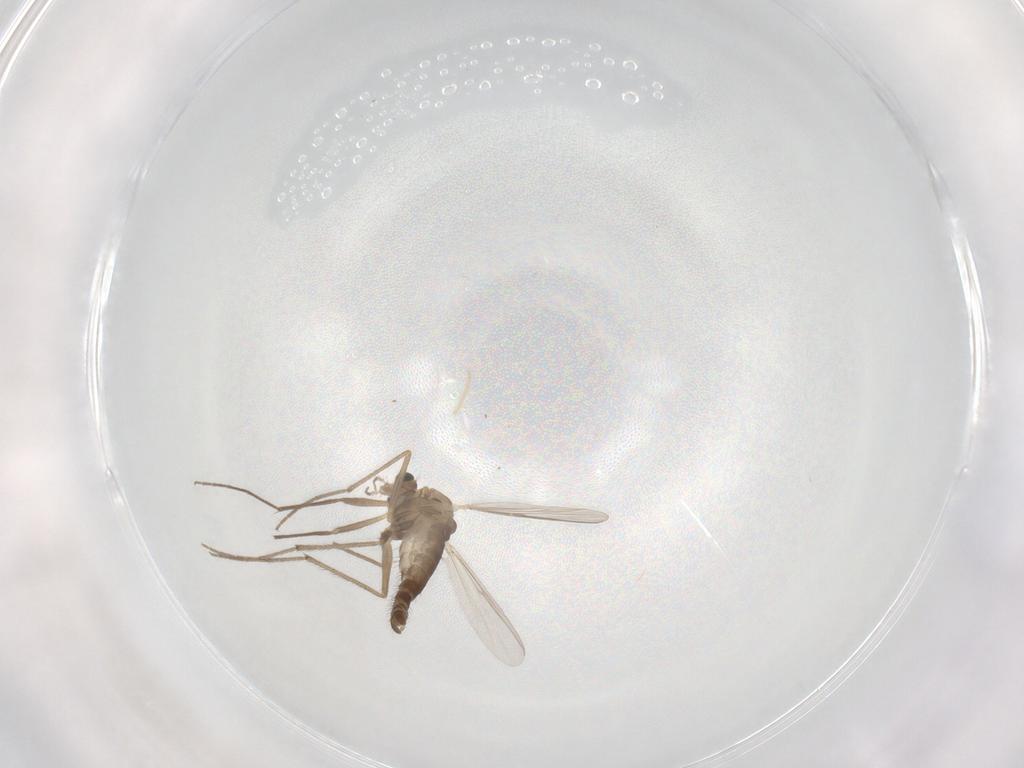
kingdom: Animalia
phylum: Arthropoda
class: Insecta
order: Diptera
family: Chironomidae
